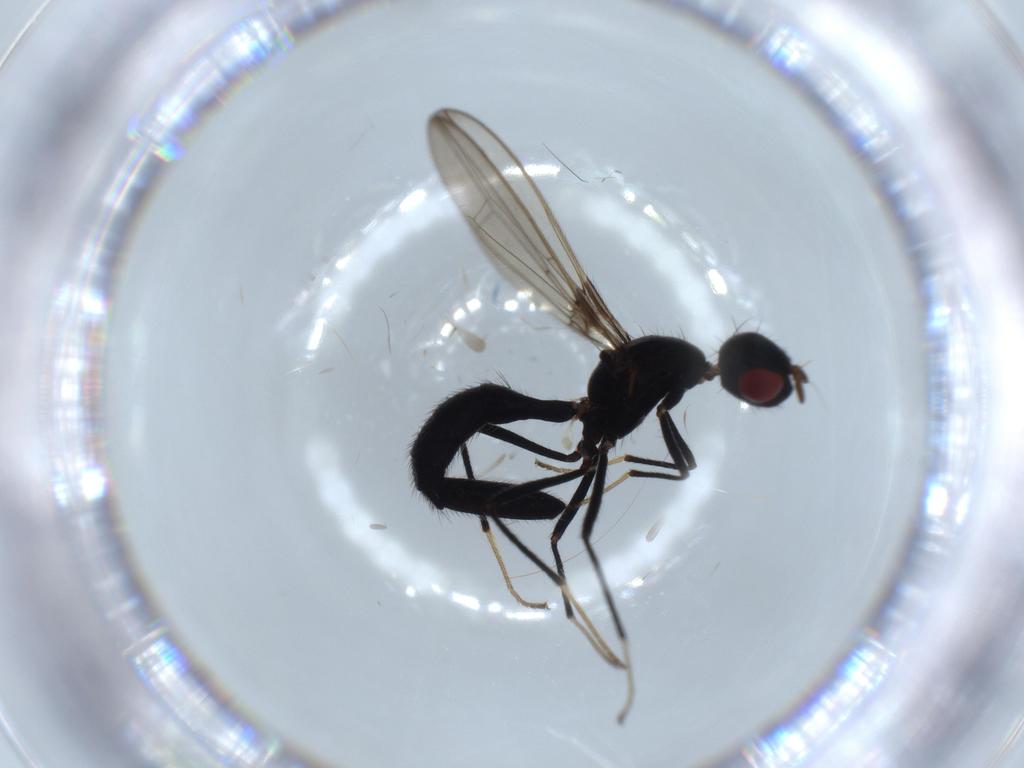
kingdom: Animalia
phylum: Arthropoda
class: Insecta
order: Diptera
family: Richardiidae
